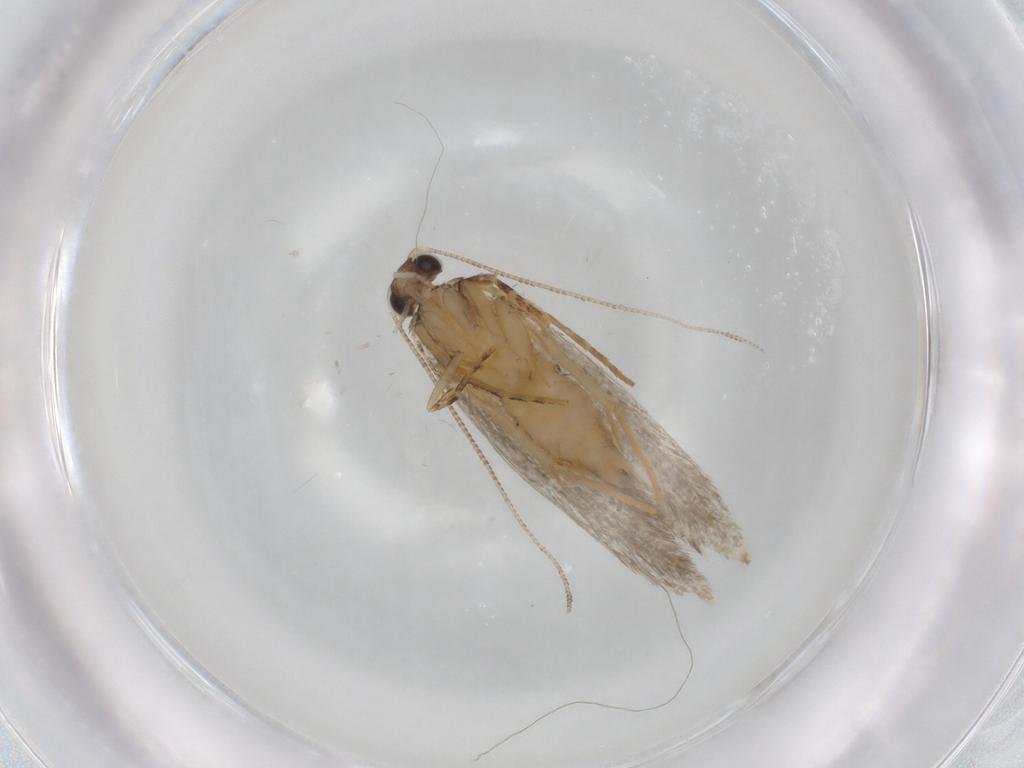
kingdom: Animalia
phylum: Arthropoda
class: Insecta
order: Lepidoptera
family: Tineidae
